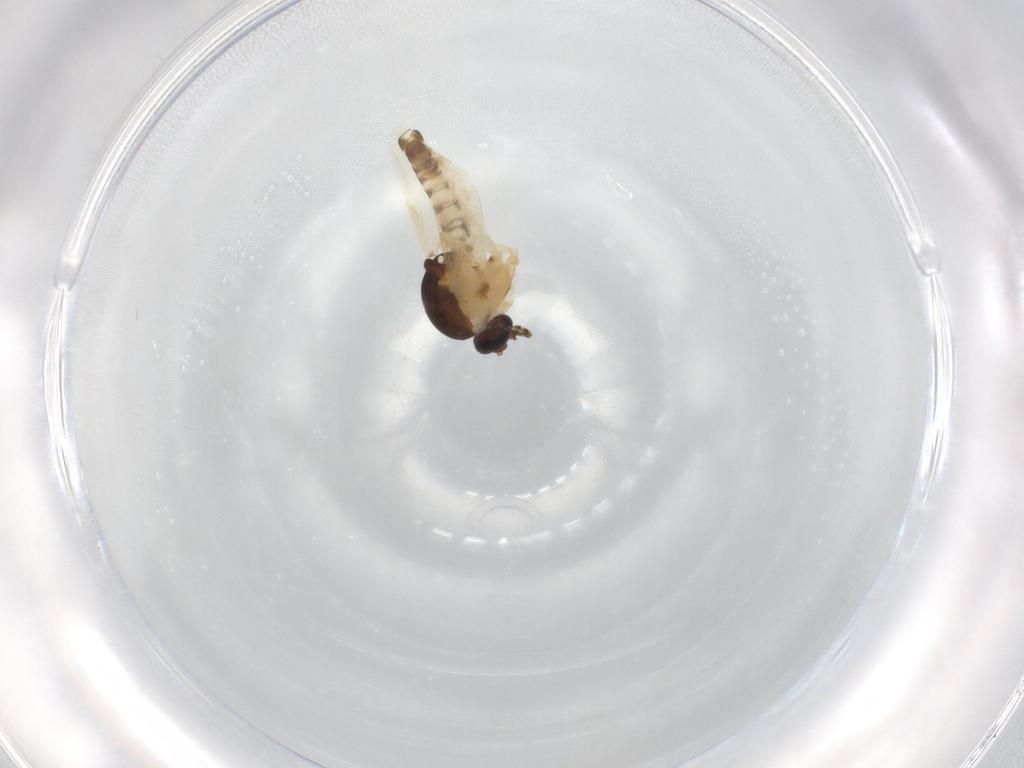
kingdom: Animalia
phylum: Arthropoda
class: Insecta
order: Diptera
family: Ceratopogonidae
